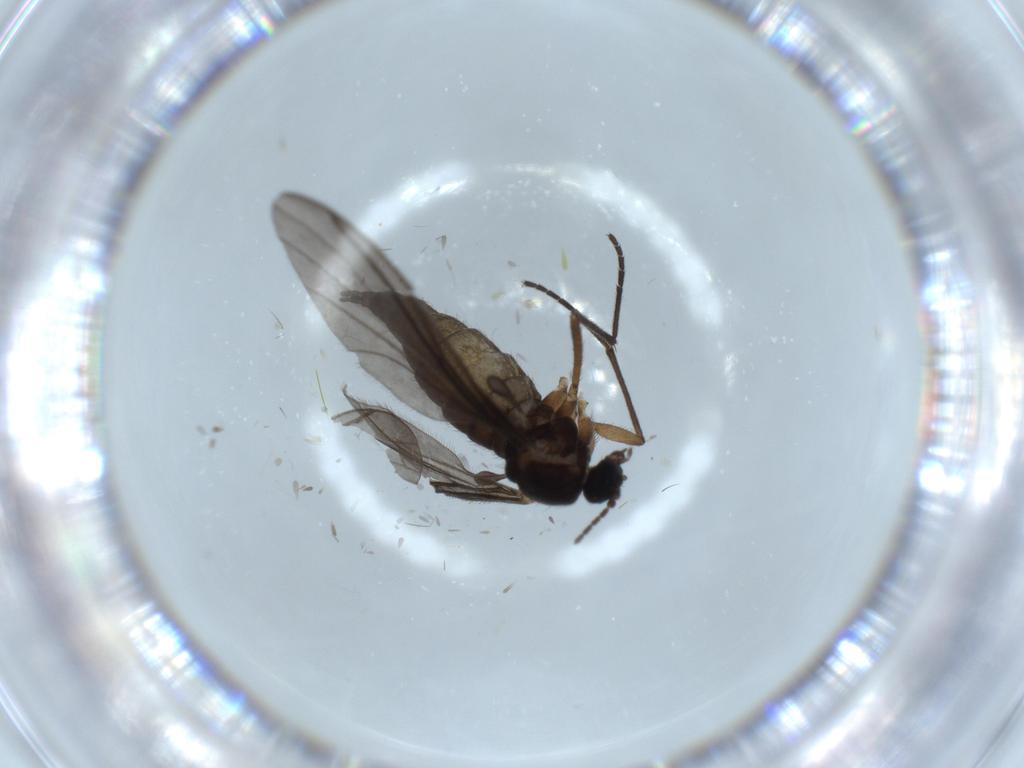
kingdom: Animalia
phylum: Arthropoda
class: Insecta
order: Diptera
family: Sciaridae
